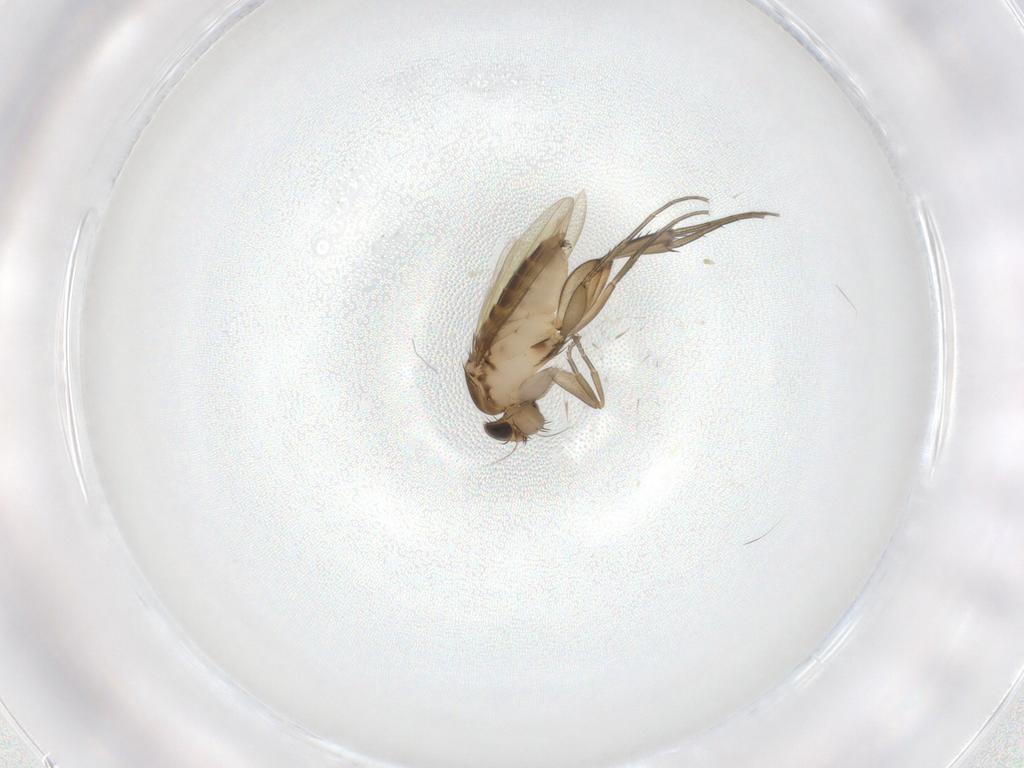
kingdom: Animalia
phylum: Arthropoda
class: Insecta
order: Diptera
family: Phoridae
